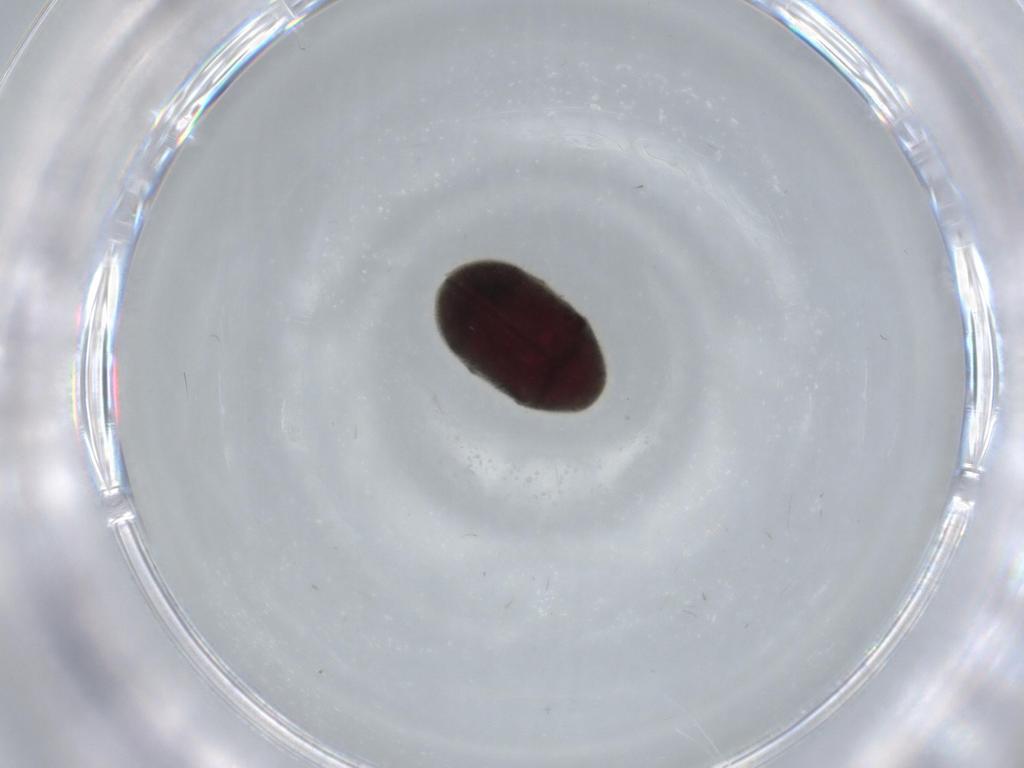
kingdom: Animalia
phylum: Arthropoda
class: Insecta
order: Coleoptera
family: Ptinidae
